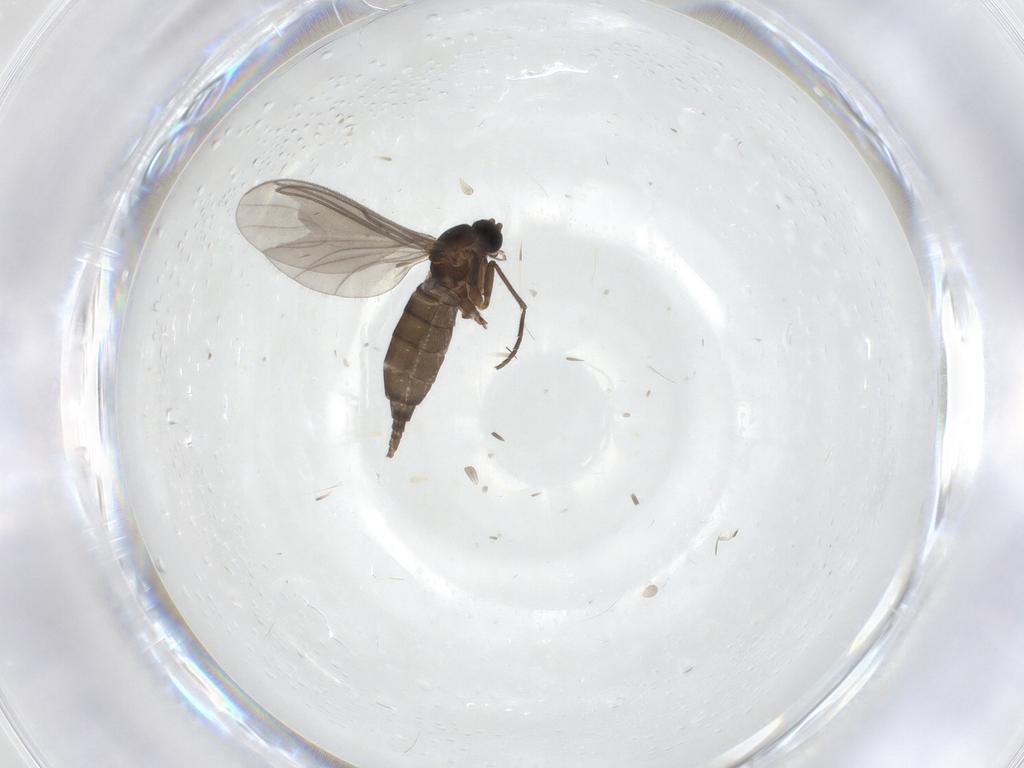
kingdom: Animalia
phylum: Arthropoda
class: Insecta
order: Diptera
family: Sciaridae
